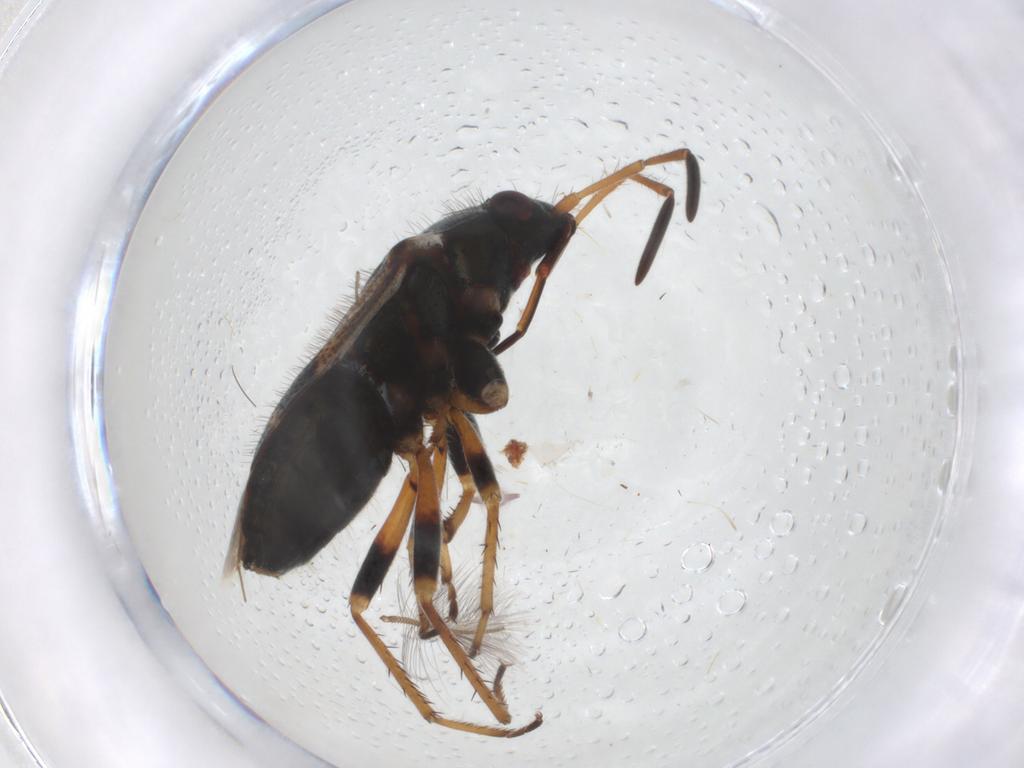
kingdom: Animalia
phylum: Arthropoda
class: Insecta
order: Hemiptera
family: Rhyparochromidae
